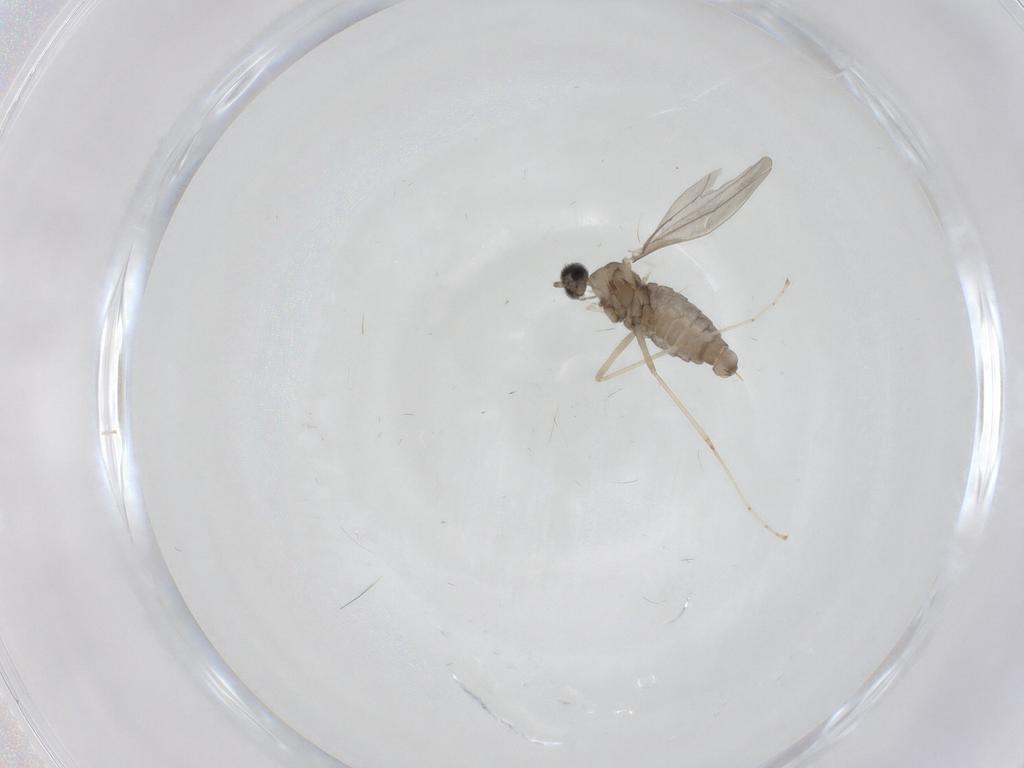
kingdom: Animalia
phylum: Arthropoda
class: Insecta
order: Diptera
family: Cecidomyiidae
